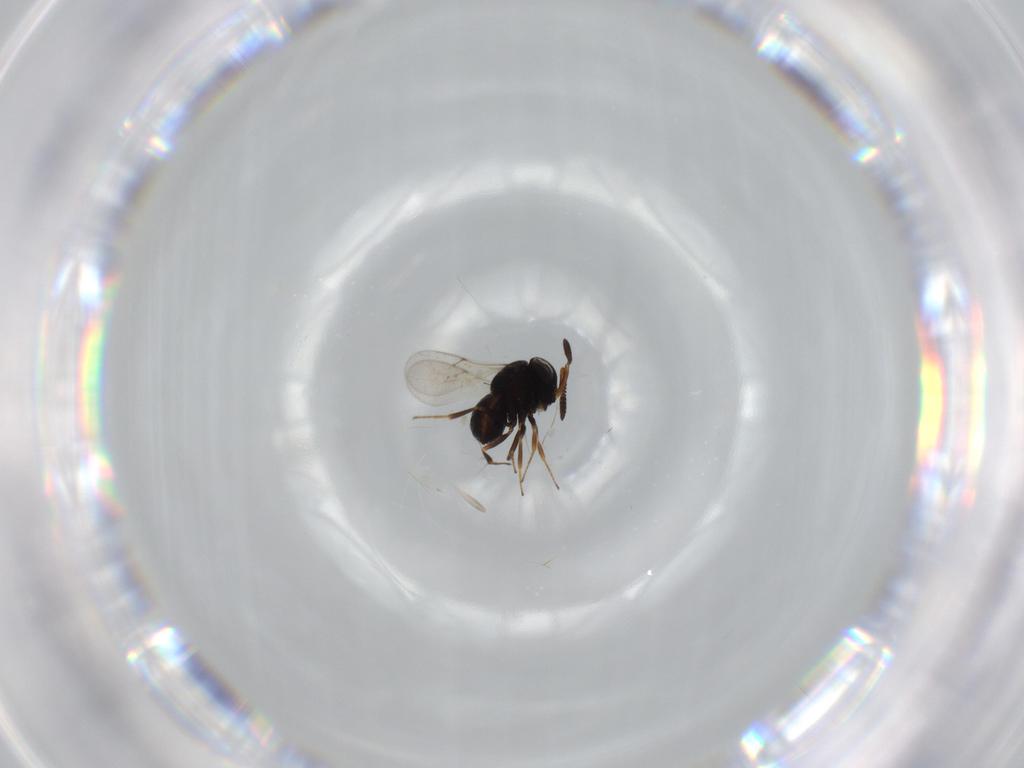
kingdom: Animalia
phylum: Arthropoda
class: Insecta
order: Hymenoptera
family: Scelionidae
